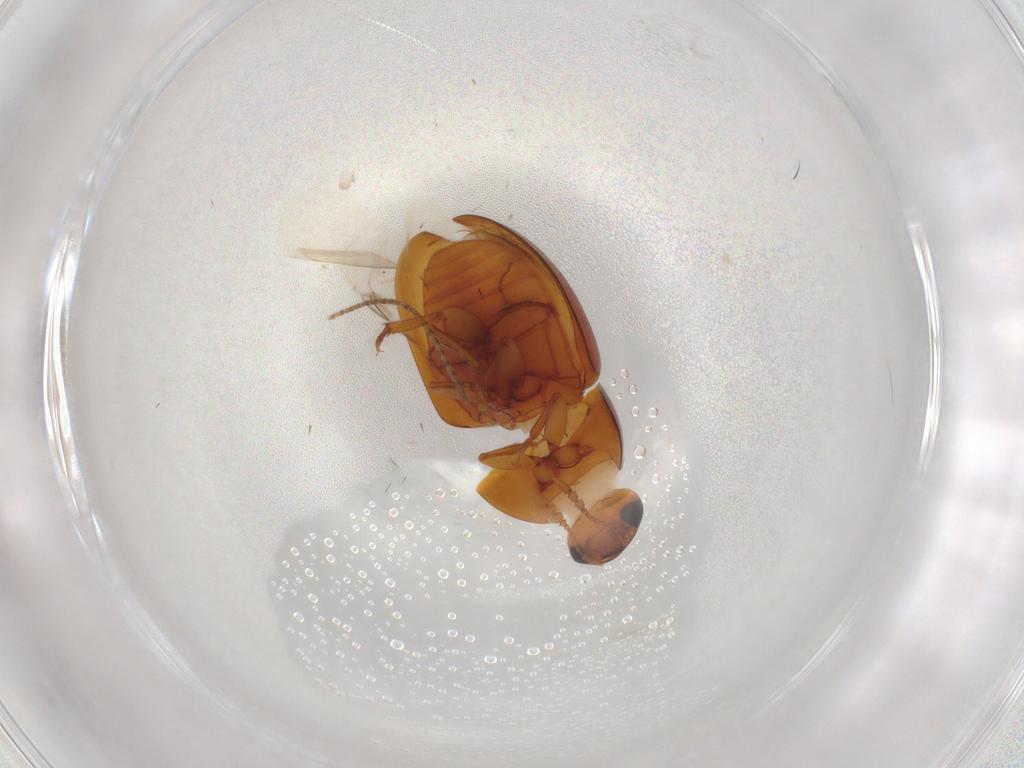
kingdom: Animalia
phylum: Arthropoda
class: Insecta
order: Coleoptera
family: Phalacridae
